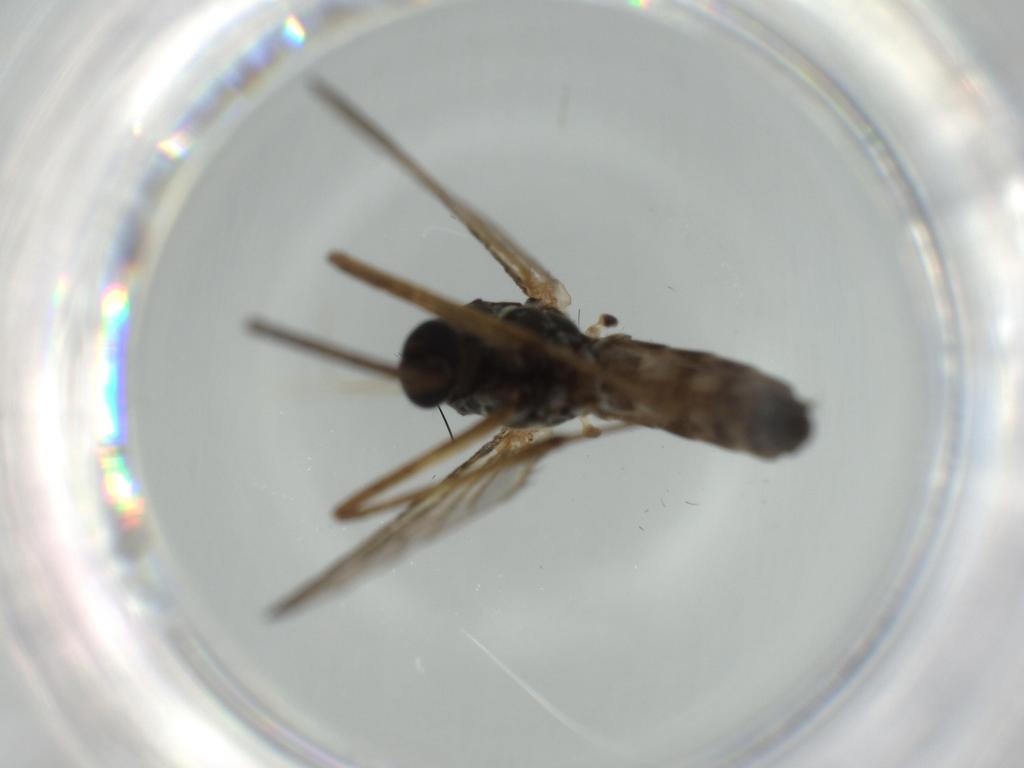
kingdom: Animalia
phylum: Arthropoda
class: Insecta
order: Diptera
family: Sciaridae
